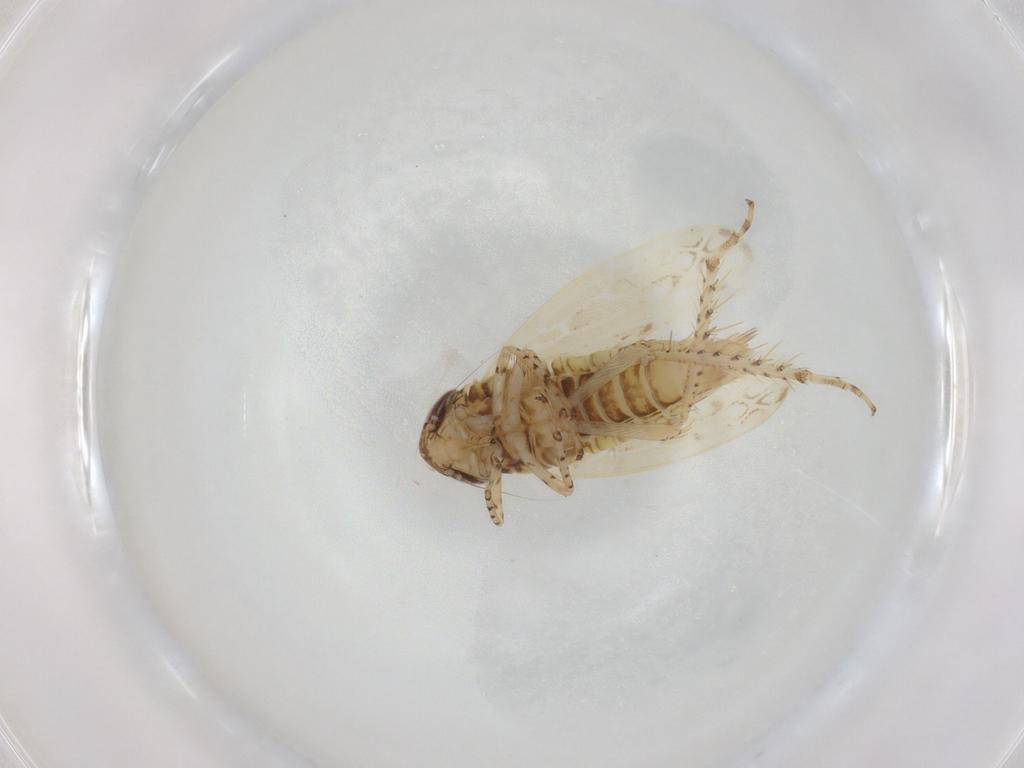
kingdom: Animalia
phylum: Arthropoda
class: Insecta
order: Hemiptera
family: Cicadellidae
